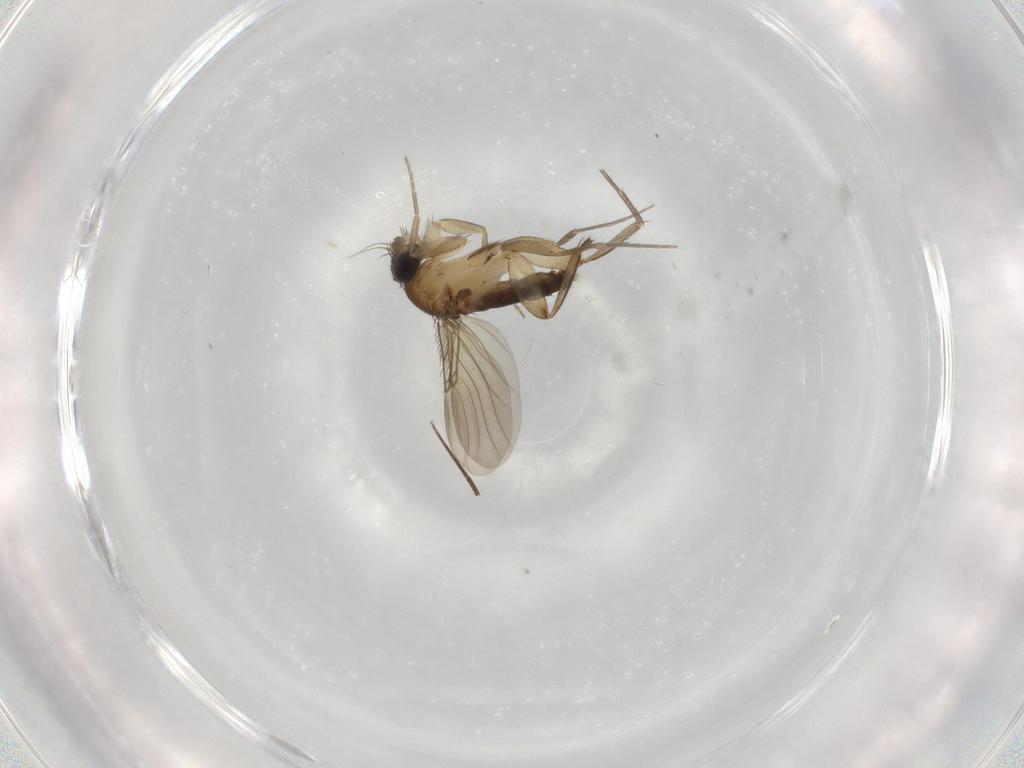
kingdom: Animalia
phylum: Arthropoda
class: Insecta
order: Diptera
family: Phoridae
